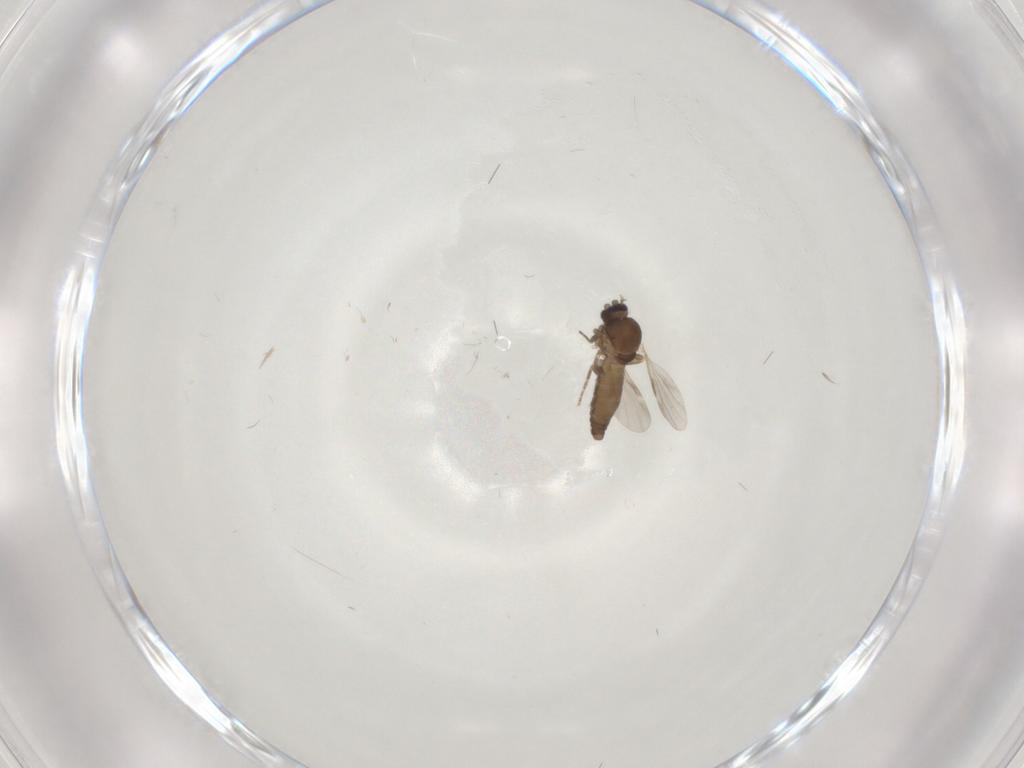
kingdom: Animalia
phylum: Arthropoda
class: Insecta
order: Diptera
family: Ceratopogonidae
